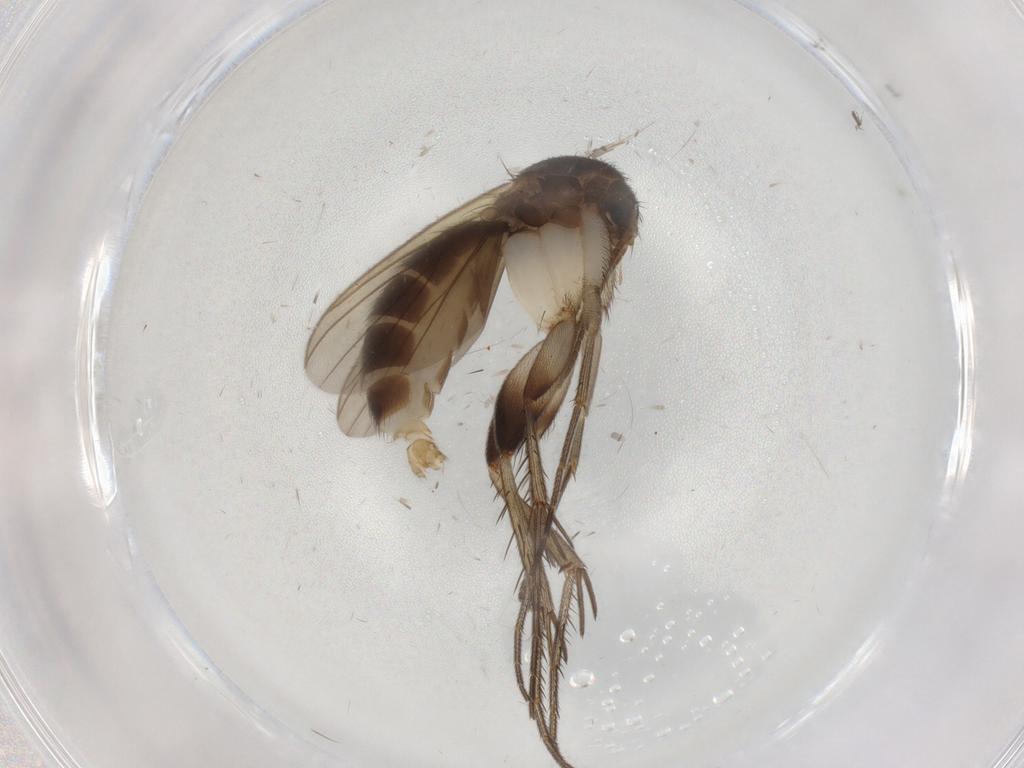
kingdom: Animalia
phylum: Arthropoda
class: Insecta
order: Diptera
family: Mycetophilidae
